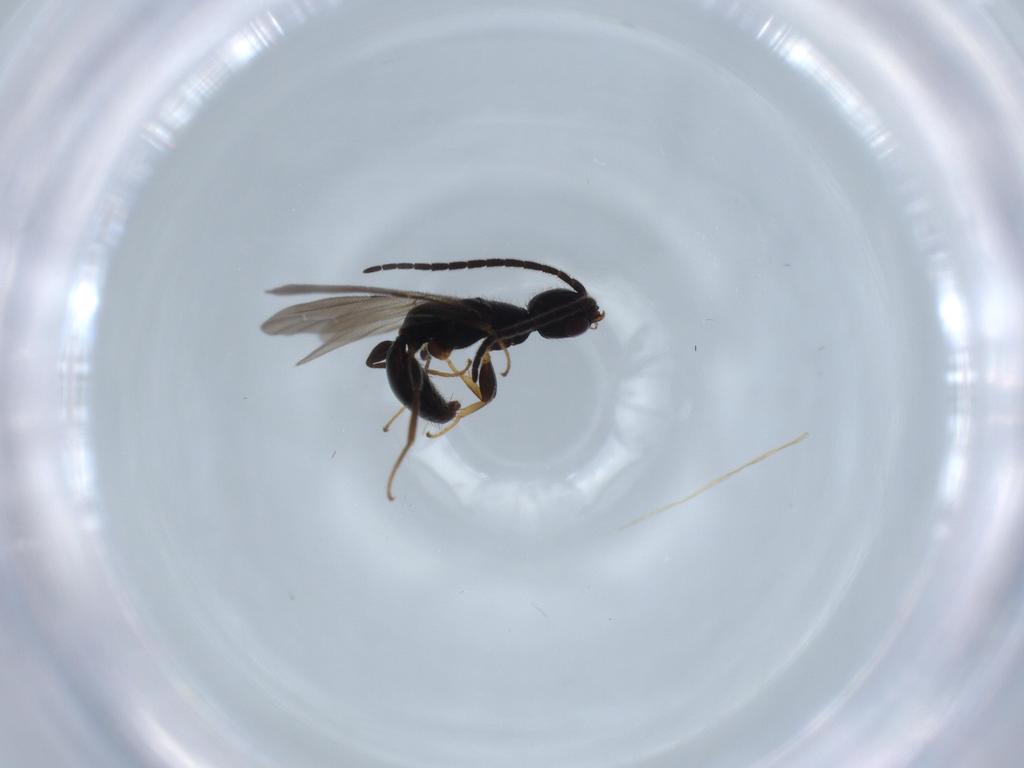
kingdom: Animalia
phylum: Arthropoda
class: Insecta
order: Hymenoptera
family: Bethylidae
